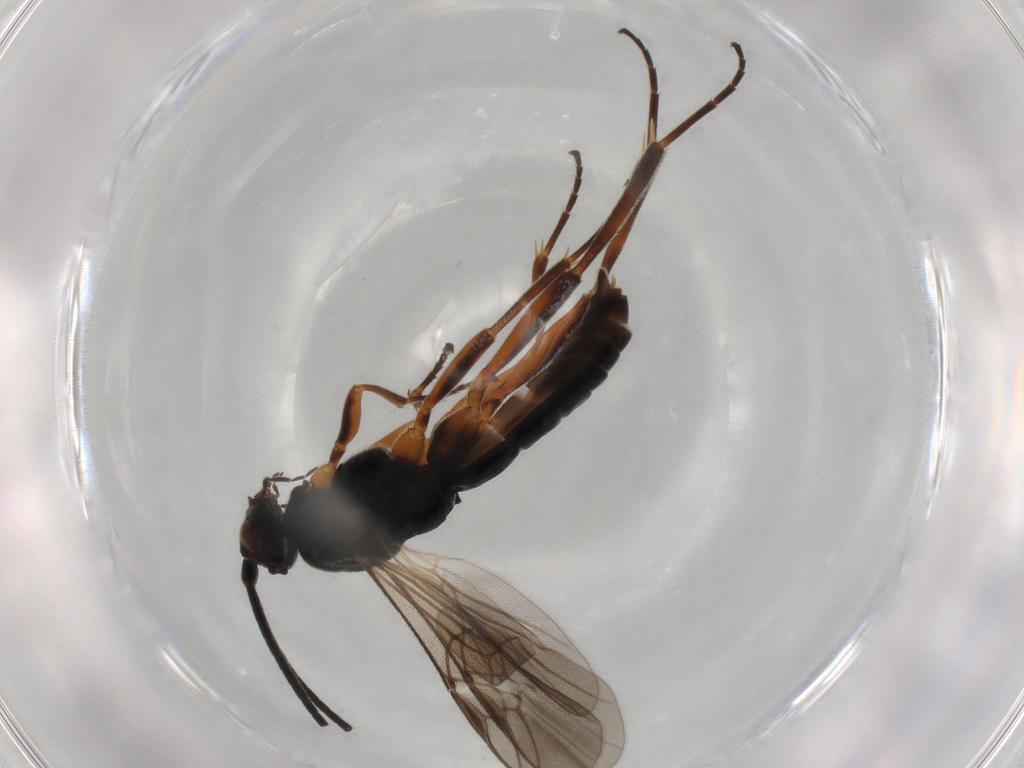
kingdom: Animalia
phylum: Arthropoda
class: Insecta
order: Hymenoptera
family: Braconidae
